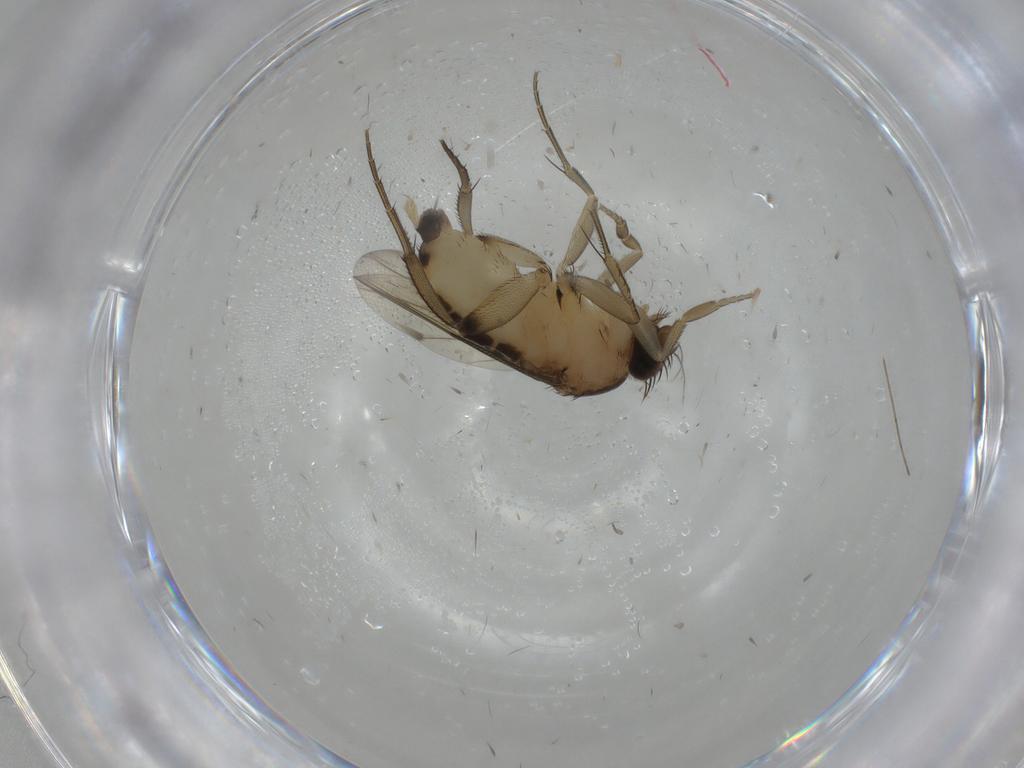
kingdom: Animalia
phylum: Arthropoda
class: Insecta
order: Diptera
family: Phoridae
